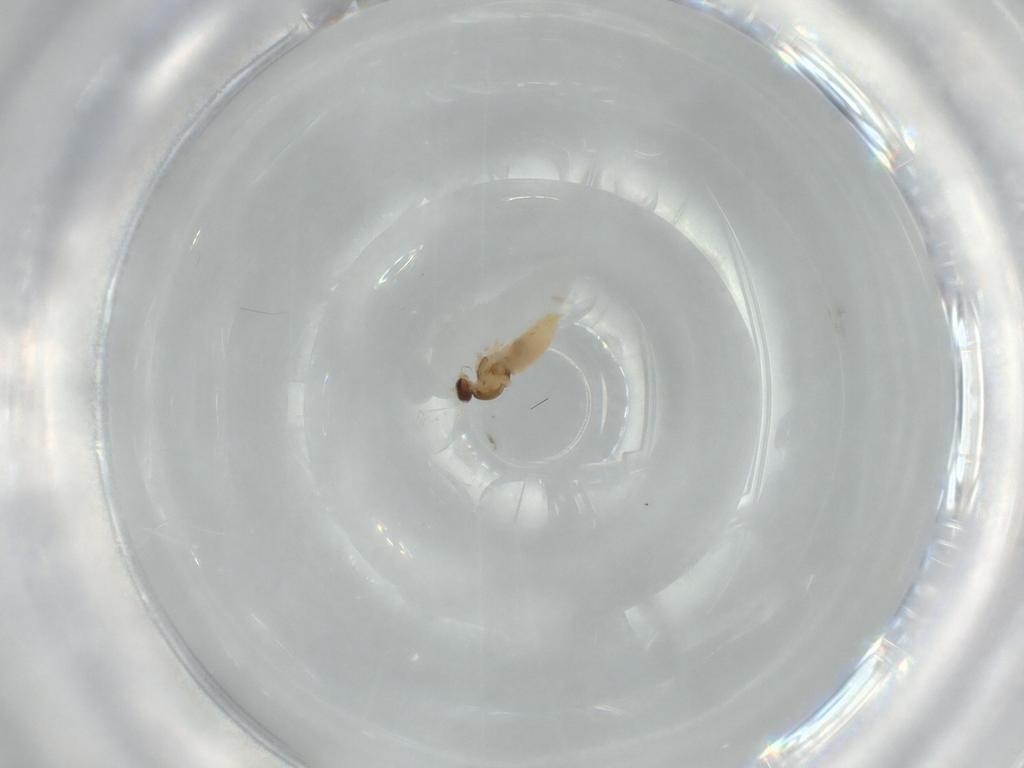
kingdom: Animalia
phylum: Arthropoda
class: Insecta
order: Diptera
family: Cecidomyiidae
